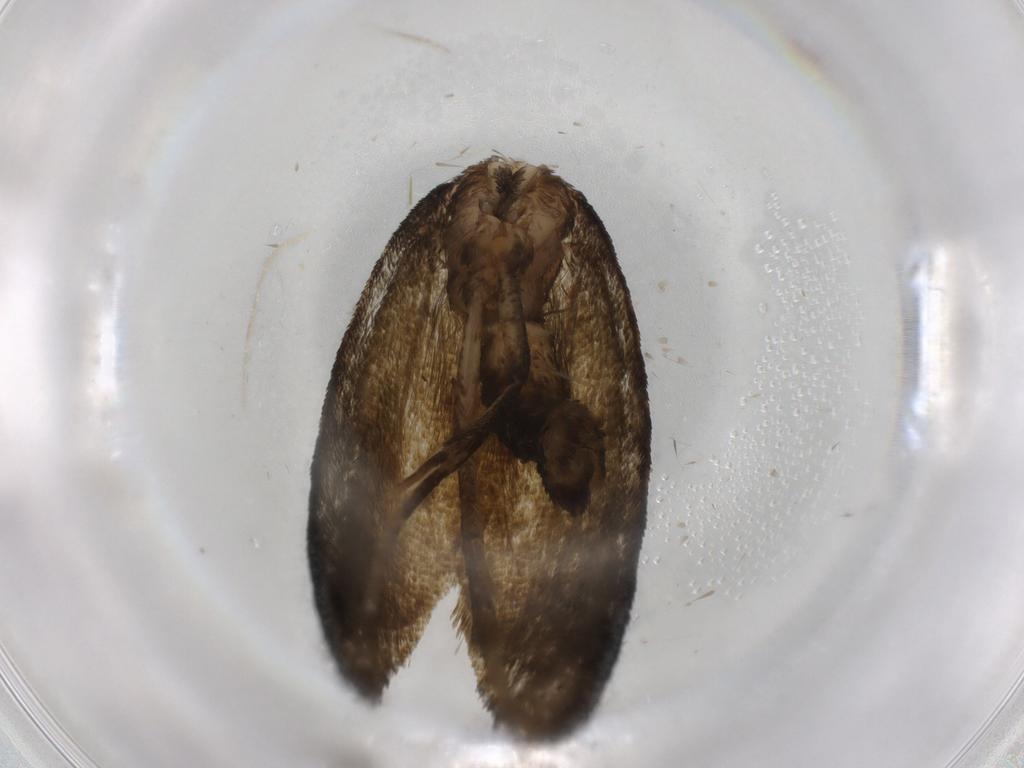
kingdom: Animalia
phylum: Arthropoda
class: Insecta
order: Lepidoptera
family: Tortricidae
